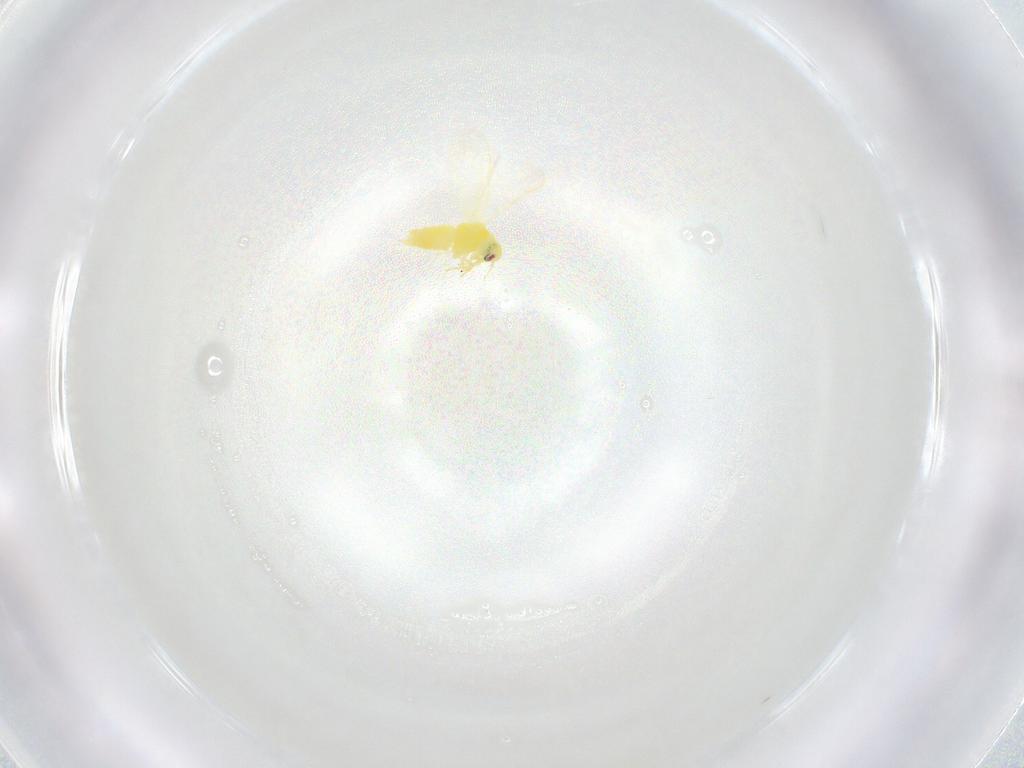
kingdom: Animalia
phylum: Arthropoda
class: Insecta
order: Hemiptera
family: Aleyrodidae
